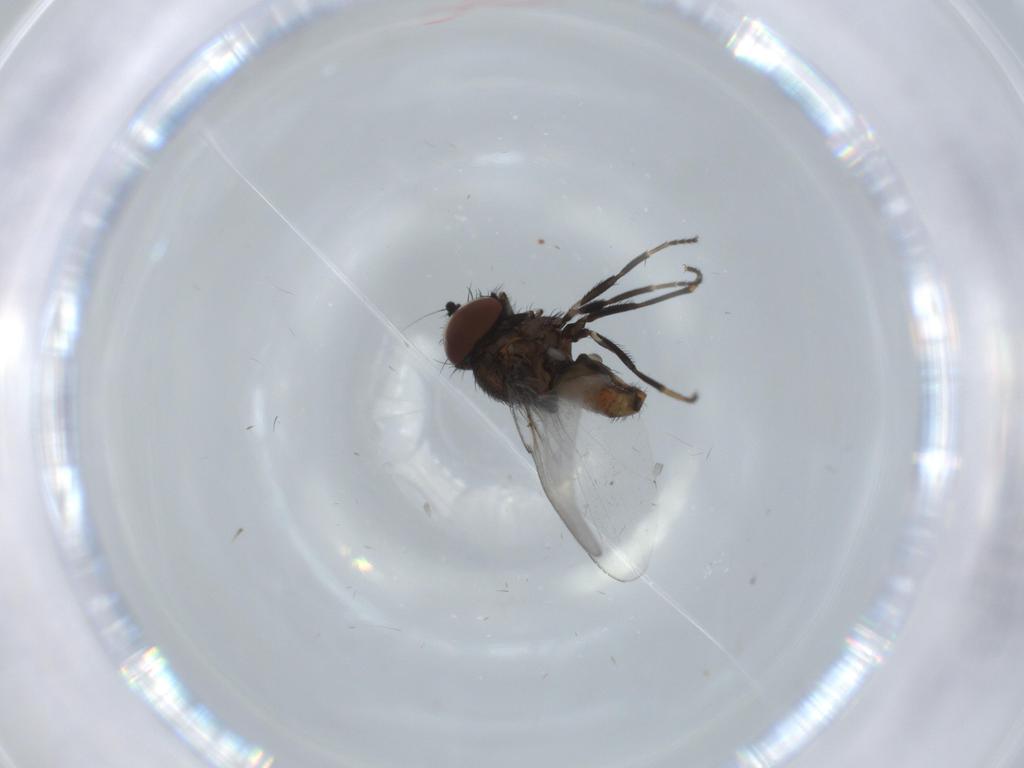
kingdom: Animalia
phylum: Arthropoda
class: Insecta
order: Diptera
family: Milichiidae
